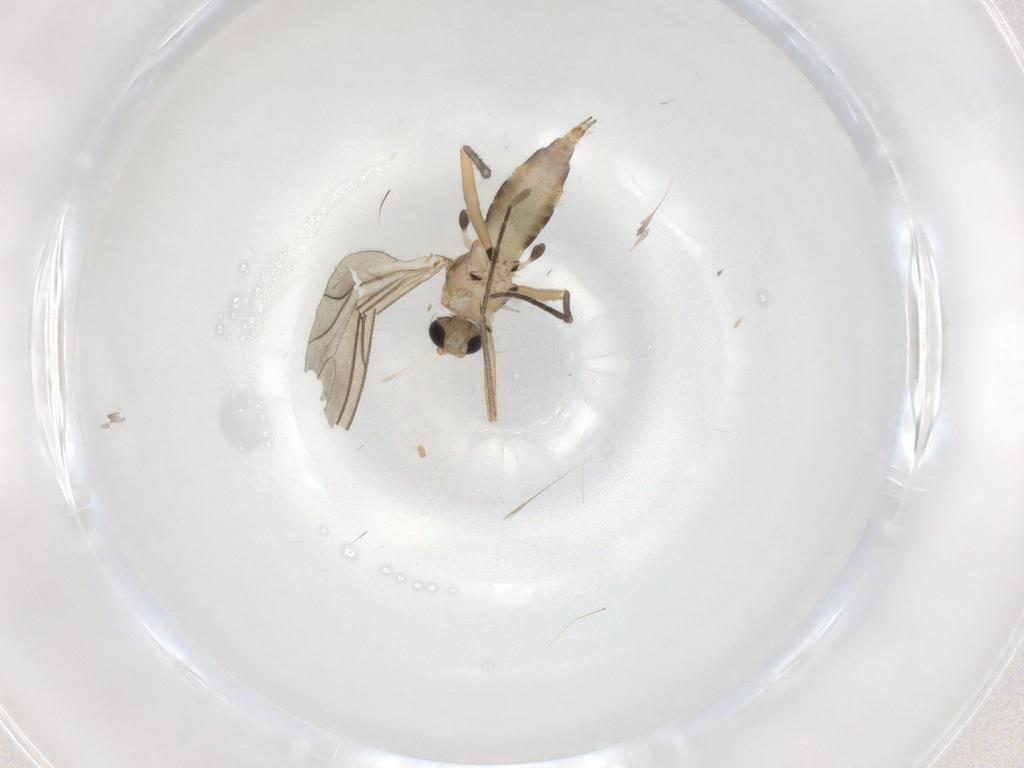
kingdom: Animalia
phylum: Arthropoda
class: Insecta
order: Diptera
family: Sciaridae
